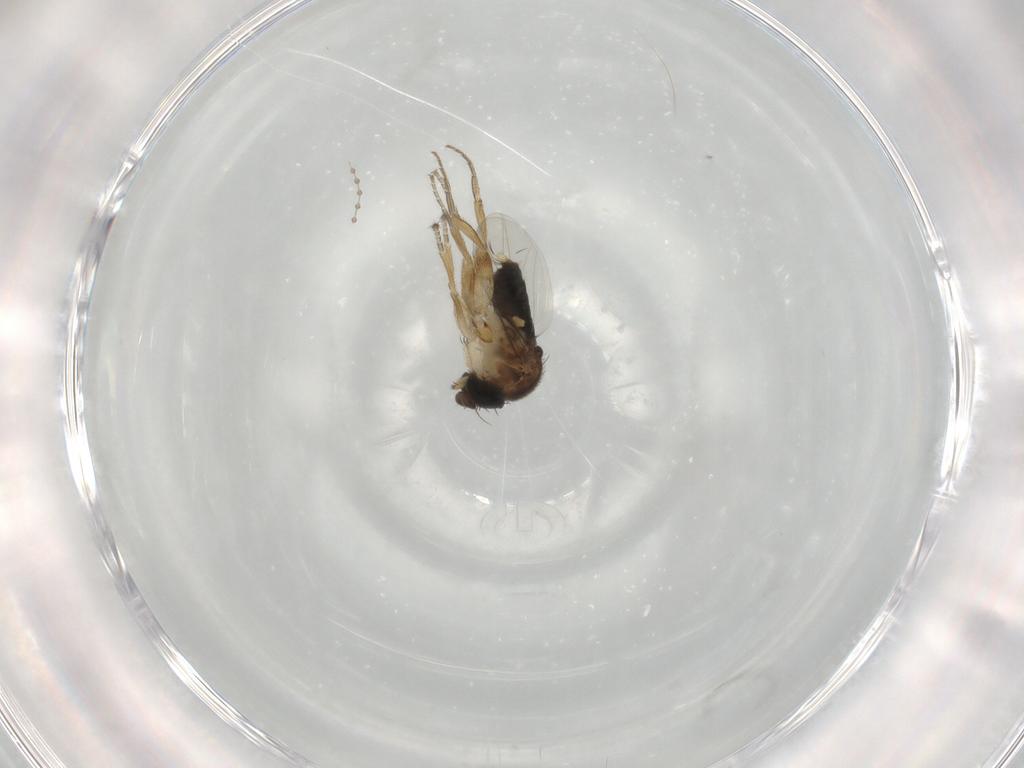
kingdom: Animalia
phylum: Arthropoda
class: Insecta
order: Diptera
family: Phoridae
